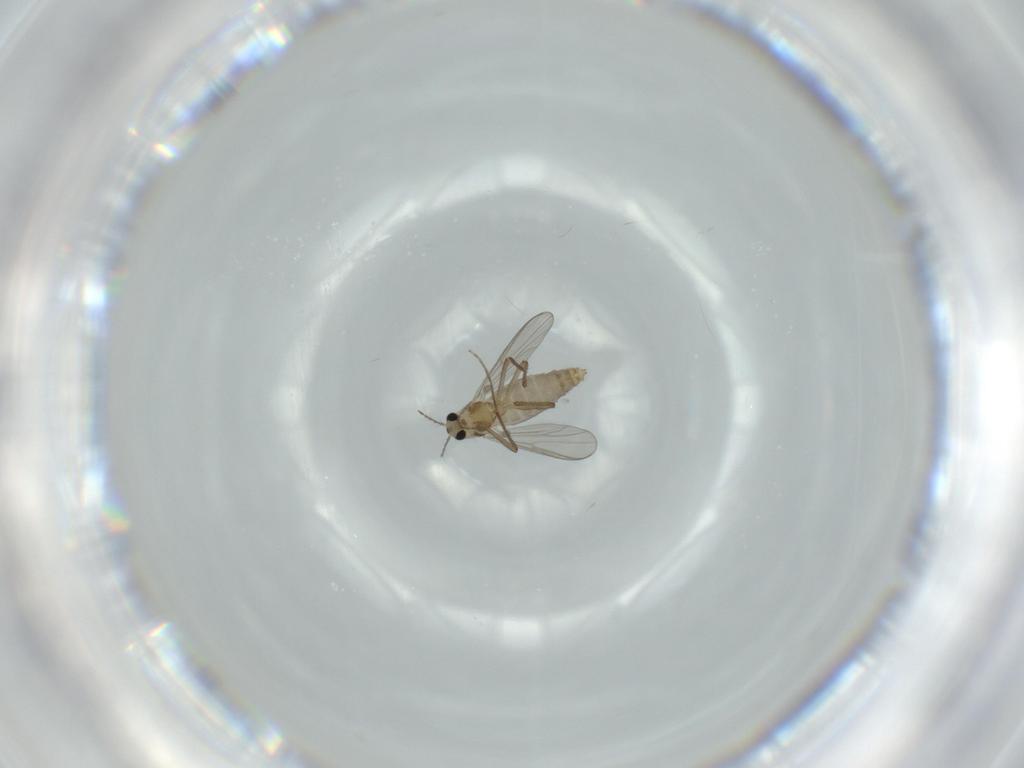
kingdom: Animalia
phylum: Arthropoda
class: Insecta
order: Diptera
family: Chironomidae
